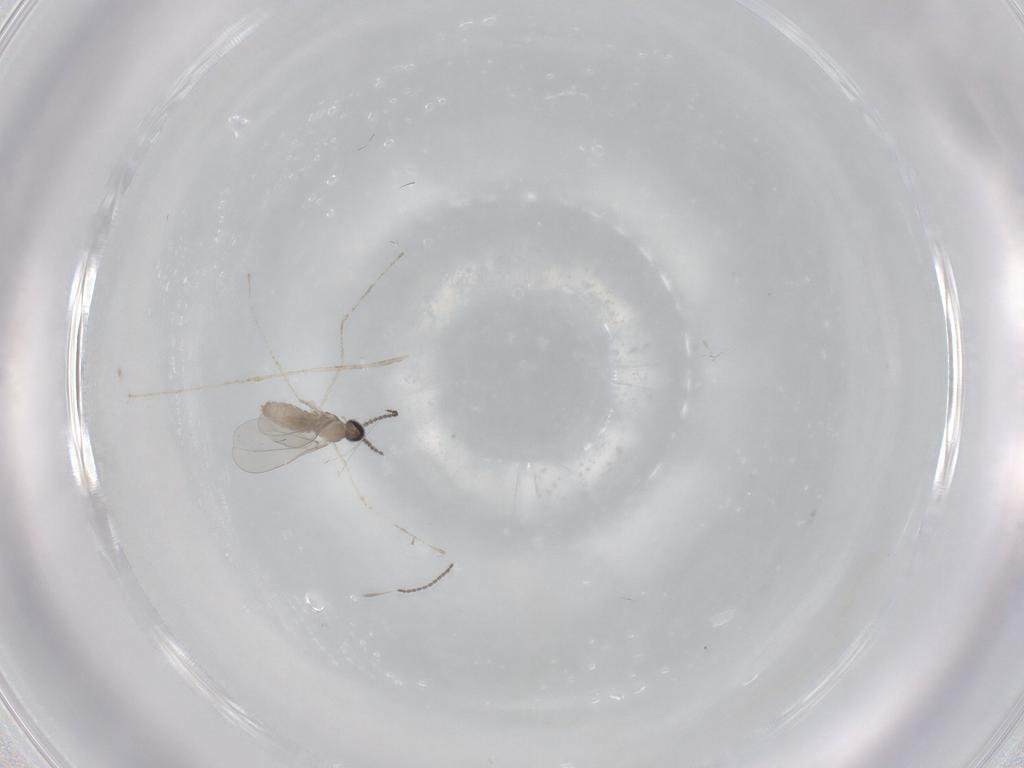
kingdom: Animalia
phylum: Arthropoda
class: Insecta
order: Diptera
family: Cecidomyiidae
